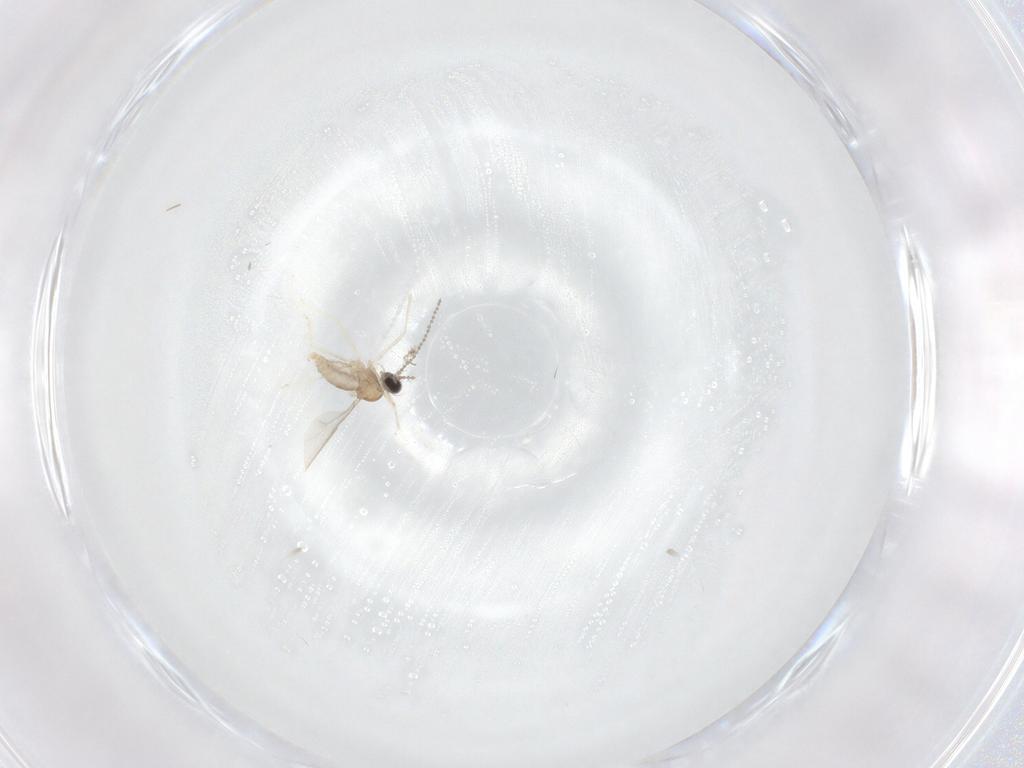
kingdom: Animalia
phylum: Arthropoda
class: Insecta
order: Diptera
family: Cecidomyiidae
